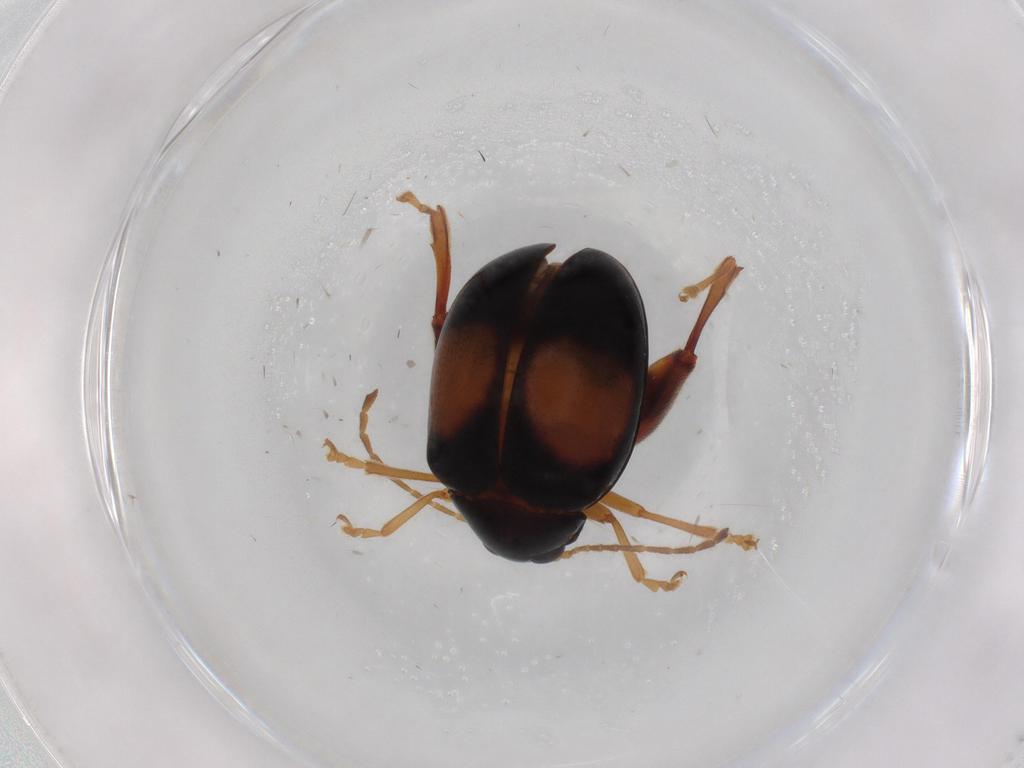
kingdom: Animalia
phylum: Arthropoda
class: Insecta
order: Coleoptera
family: Chrysomelidae
